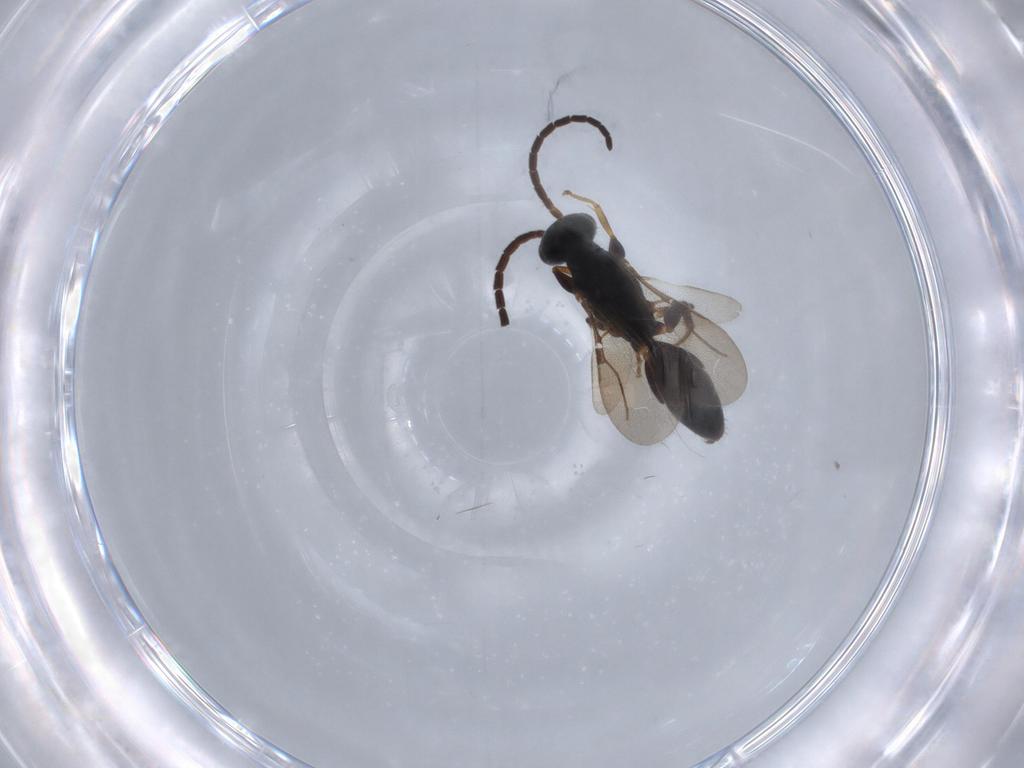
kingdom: Animalia
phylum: Arthropoda
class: Insecta
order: Hymenoptera
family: Bethylidae
